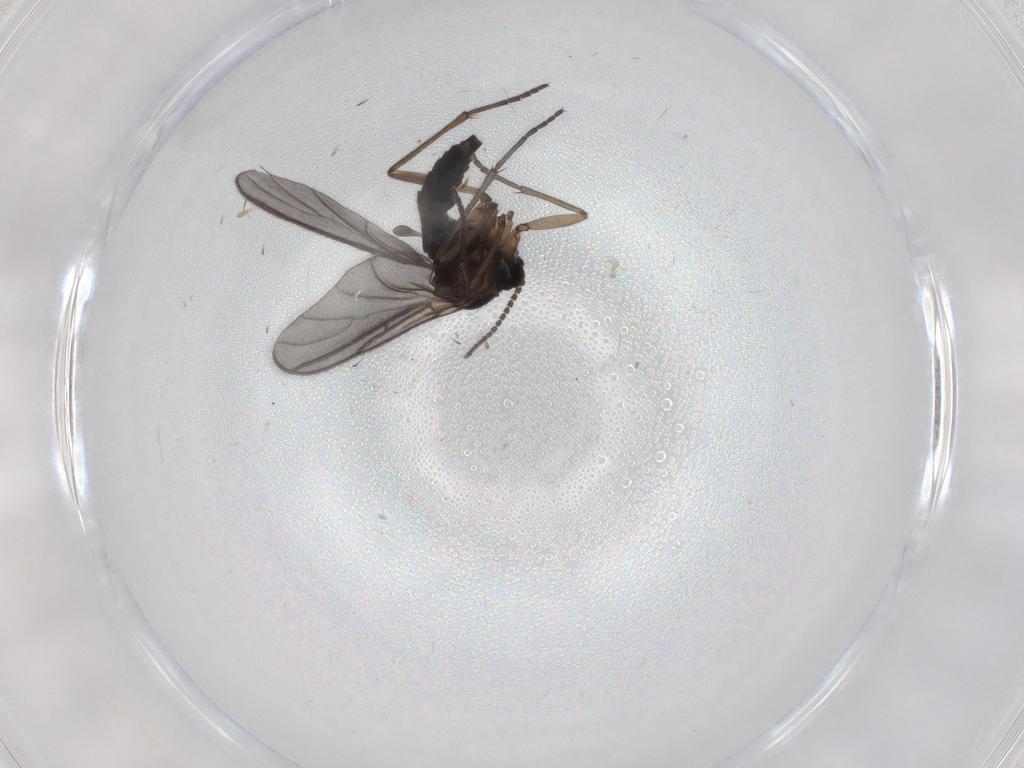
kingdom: Animalia
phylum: Arthropoda
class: Insecta
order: Diptera
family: Sciaridae
